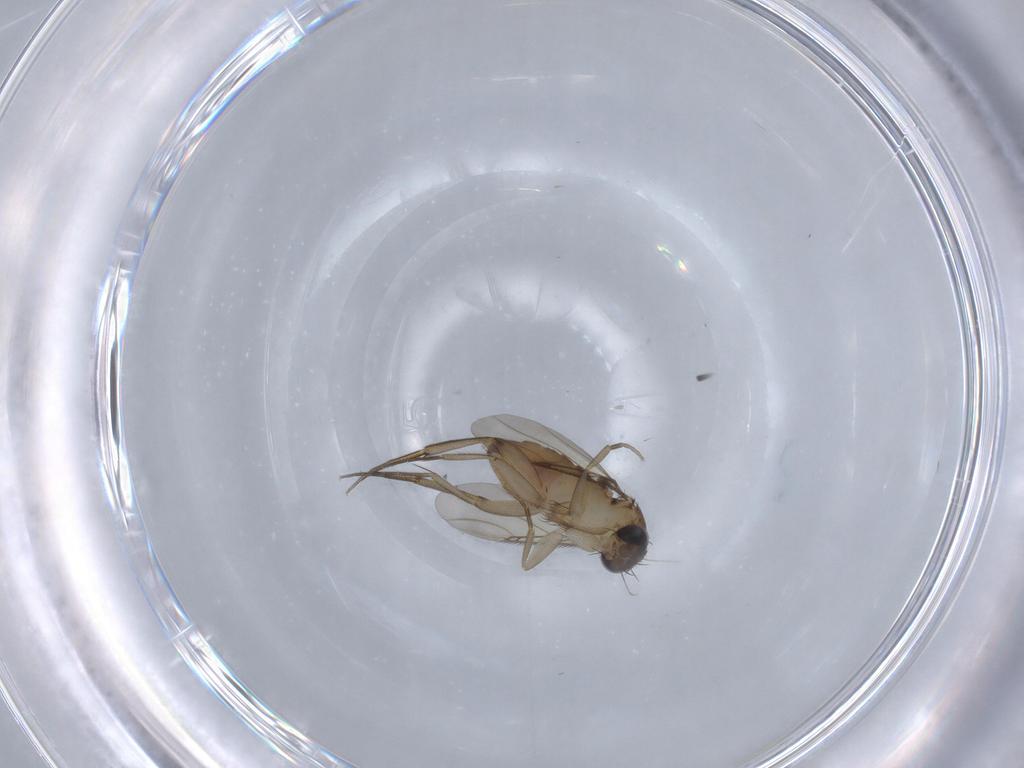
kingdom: Animalia
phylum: Arthropoda
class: Insecta
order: Diptera
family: Phoridae
